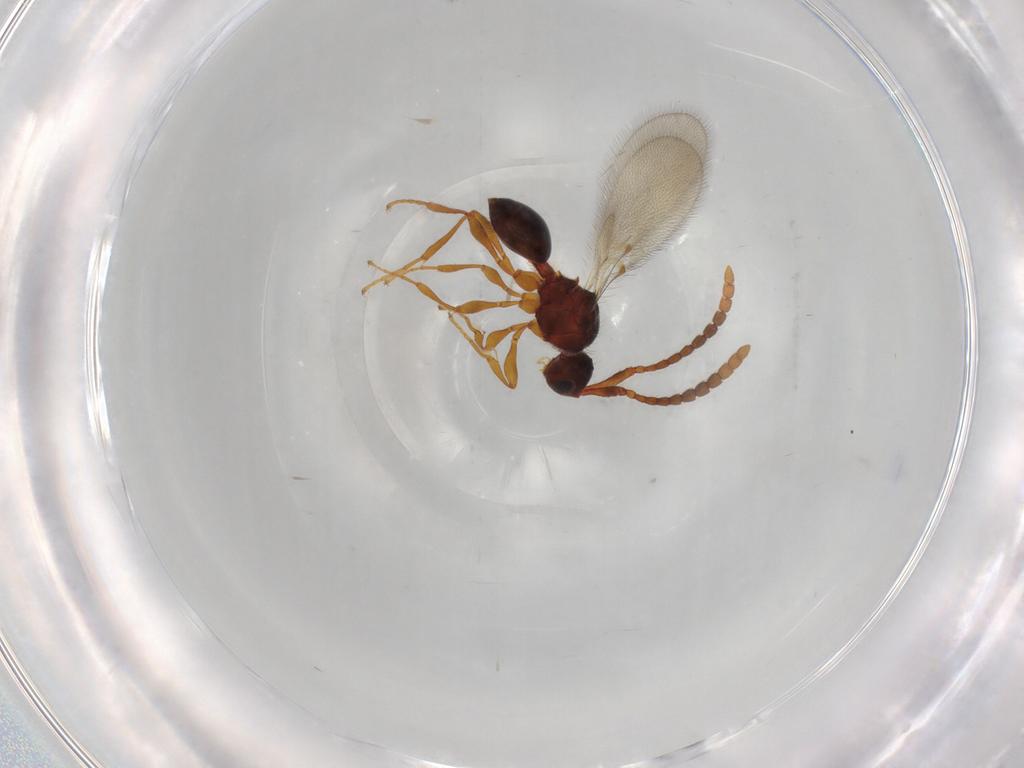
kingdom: Animalia
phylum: Arthropoda
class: Insecta
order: Hymenoptera
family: Diapriidae
